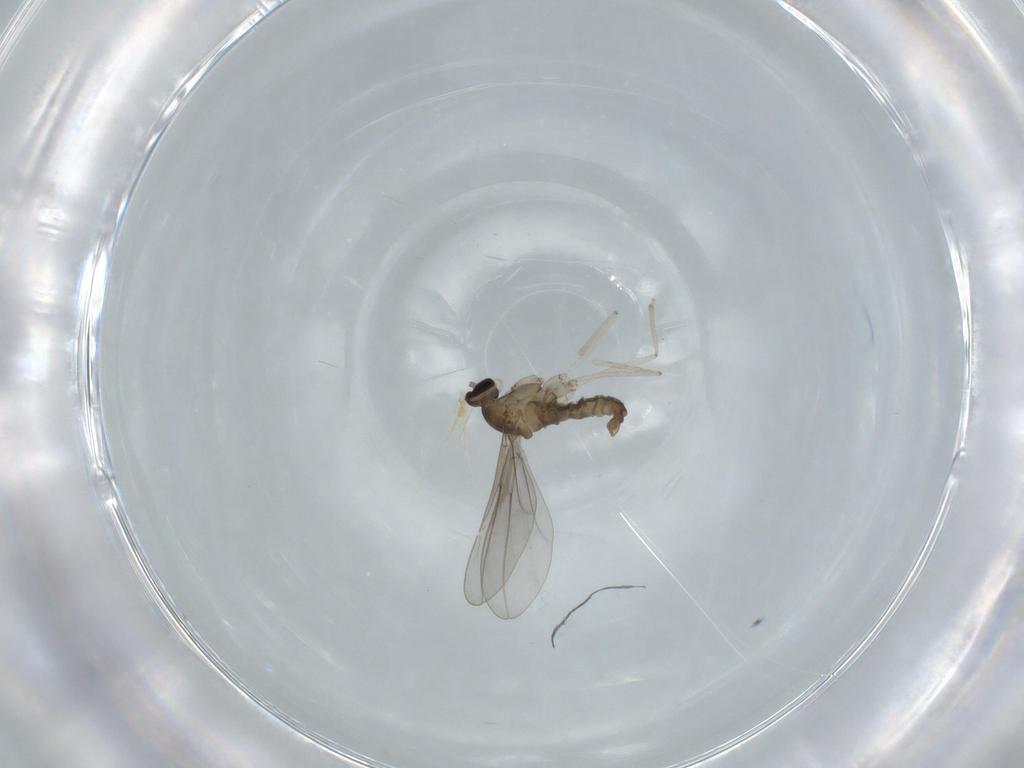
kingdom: Animalia
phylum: Arthropoda
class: Insecta
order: Diptera
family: Cecidomyiidae
